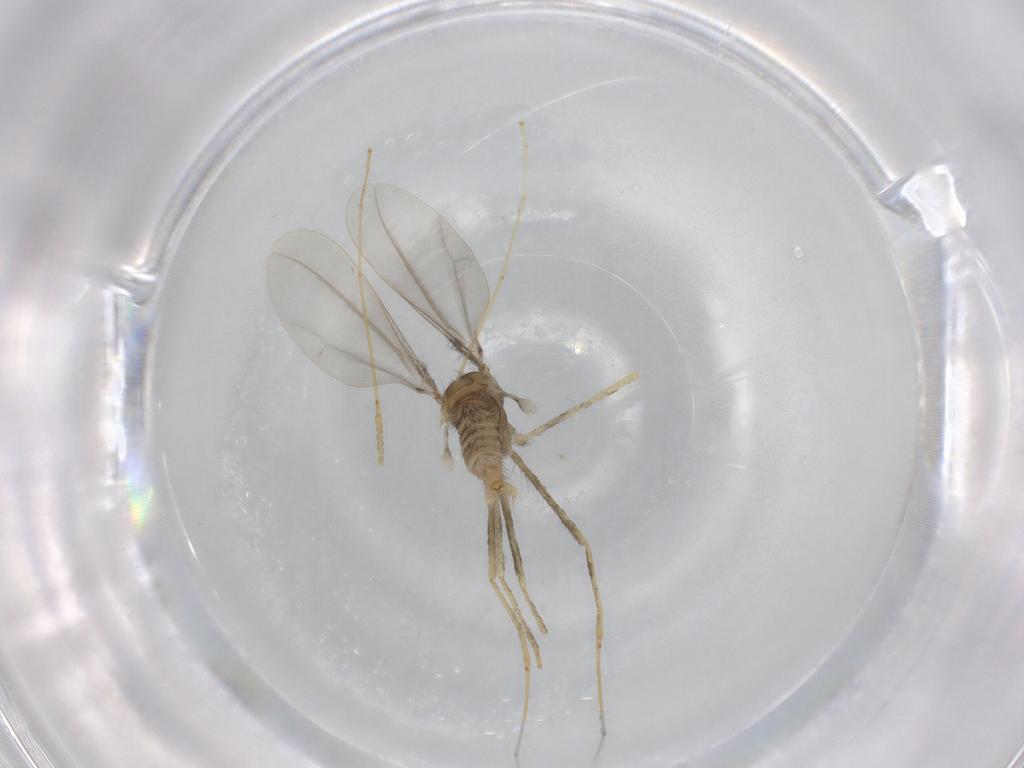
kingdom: Animalia
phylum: Arthropoda
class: Insecta
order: Diptera
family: Cecidomyiidae
